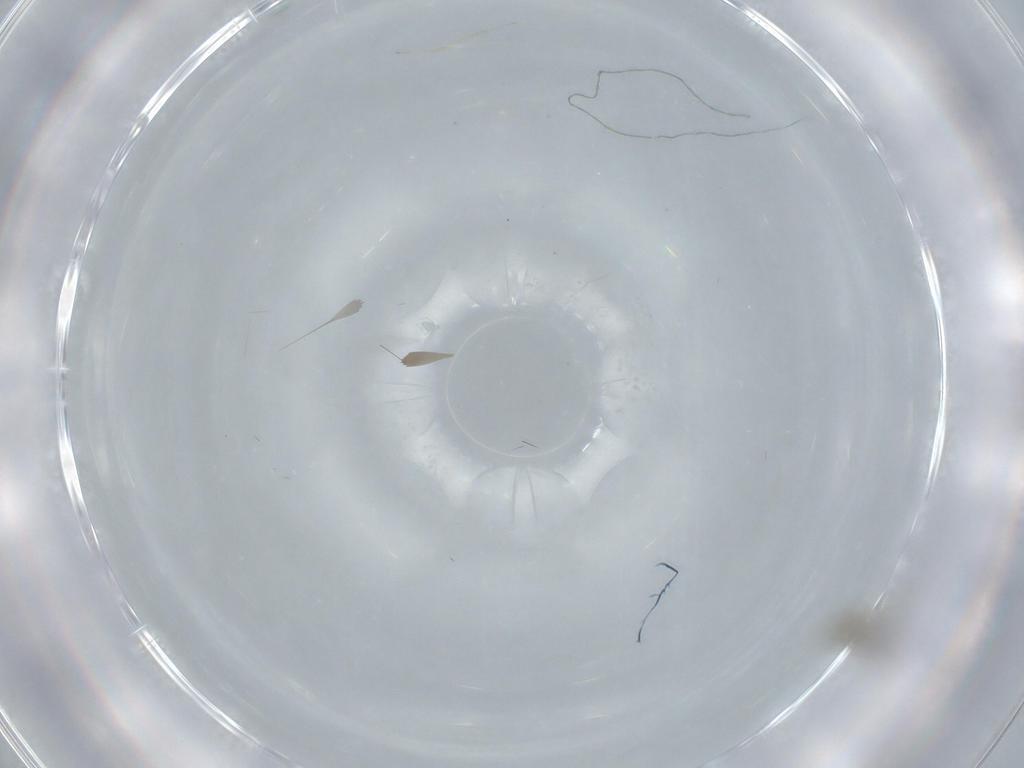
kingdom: Animalia
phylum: Arthropoda
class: Insecta
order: Diptera
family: Cecidomyiidae
